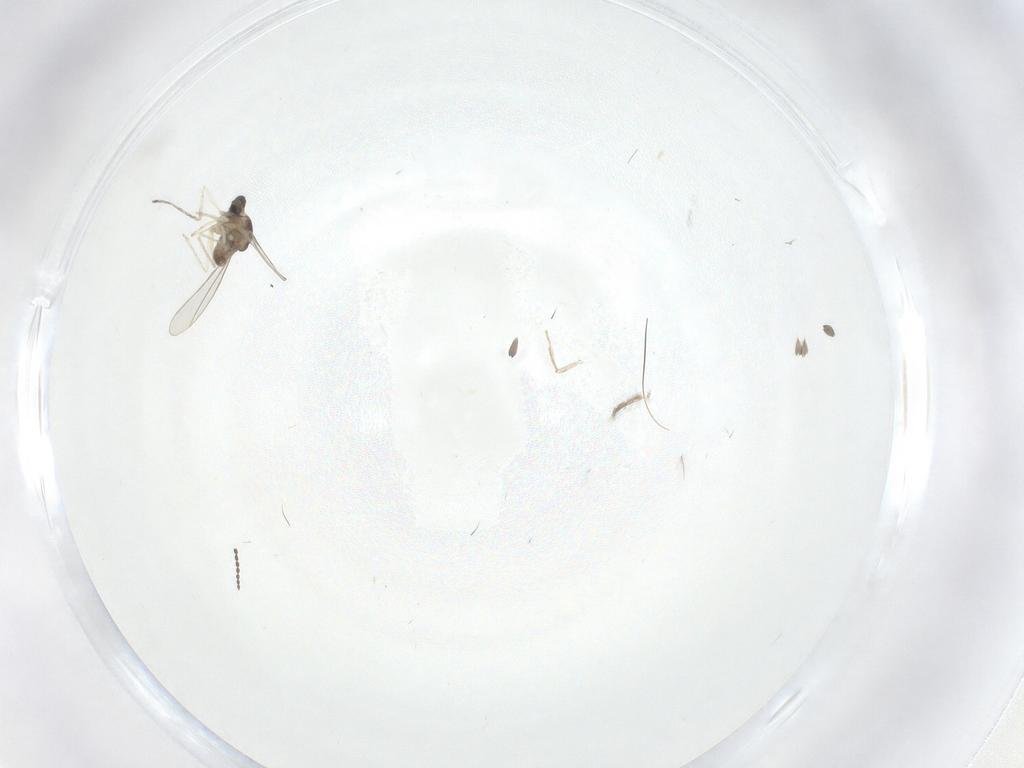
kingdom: Animalia
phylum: Arthropoda
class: Insecta
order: Diptera
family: Cecidomyiidae
